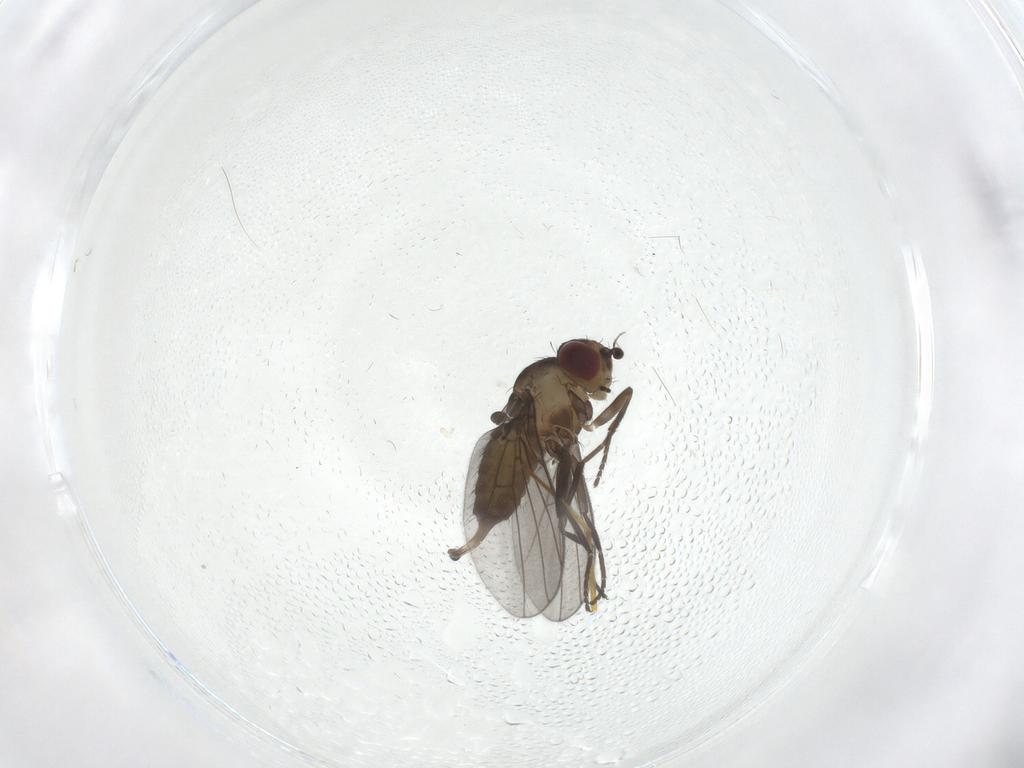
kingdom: Animalia
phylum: Arthropoda
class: Insecta
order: Diptera
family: Cecidomyiidae
